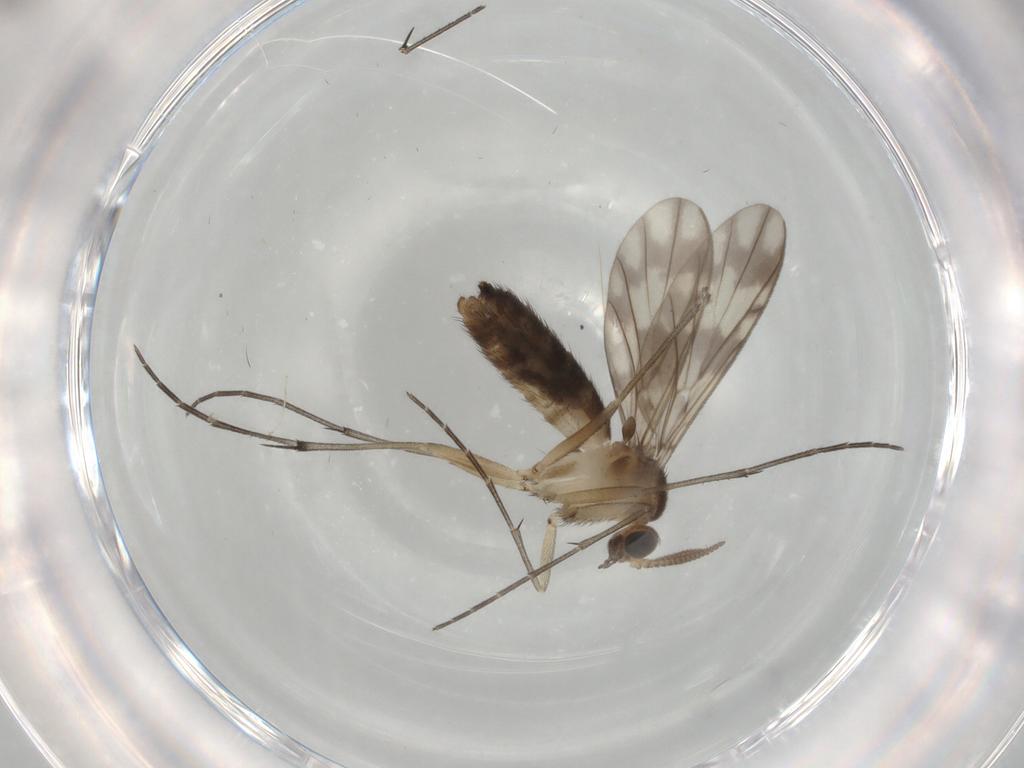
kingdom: Animalia
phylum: Arthropoda
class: Insecta
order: Diptera
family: Keroplatidae
